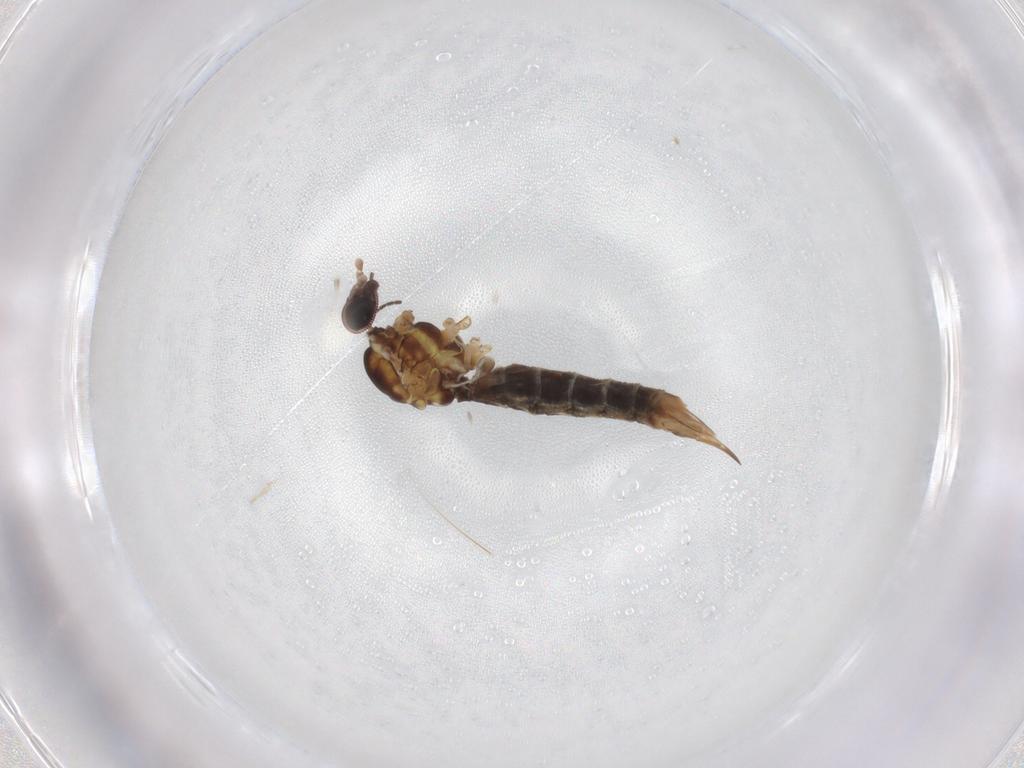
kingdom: Animalia
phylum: Arthropoda
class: Insecta
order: Diptera
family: Limoniidae
